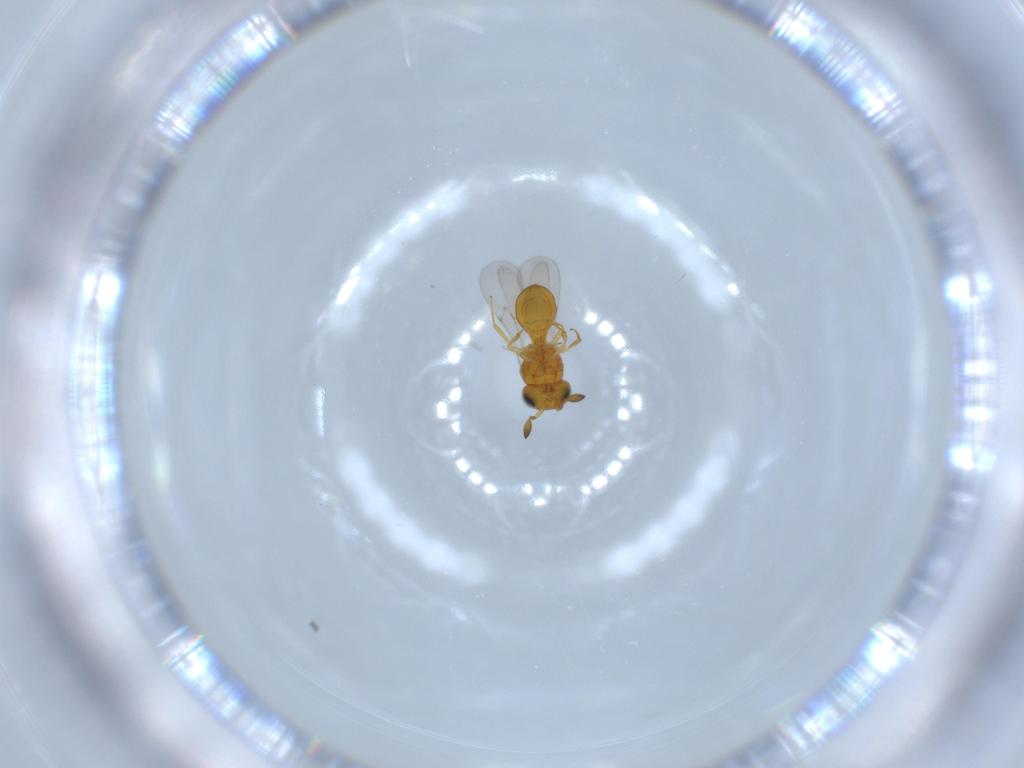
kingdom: Animalia
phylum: Arthropoda
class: Insecta
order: Hymenoptera
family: Scelionidae
